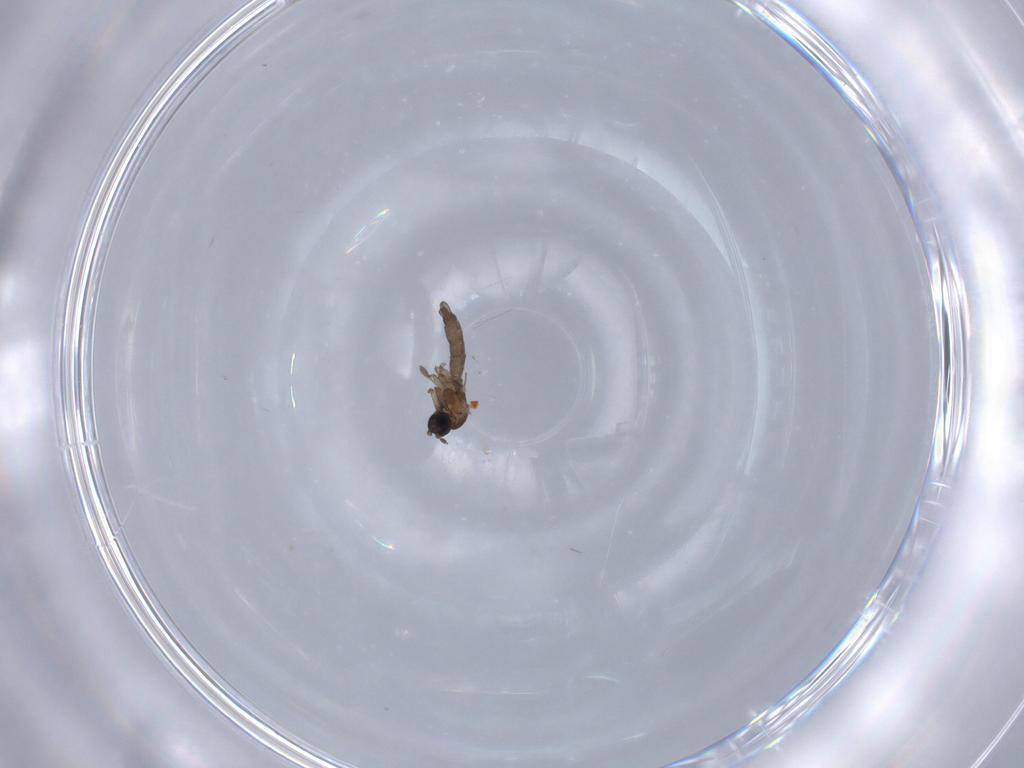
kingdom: Animalia
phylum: Arthropoda
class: Insecta
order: Diptera
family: Sciaridae
